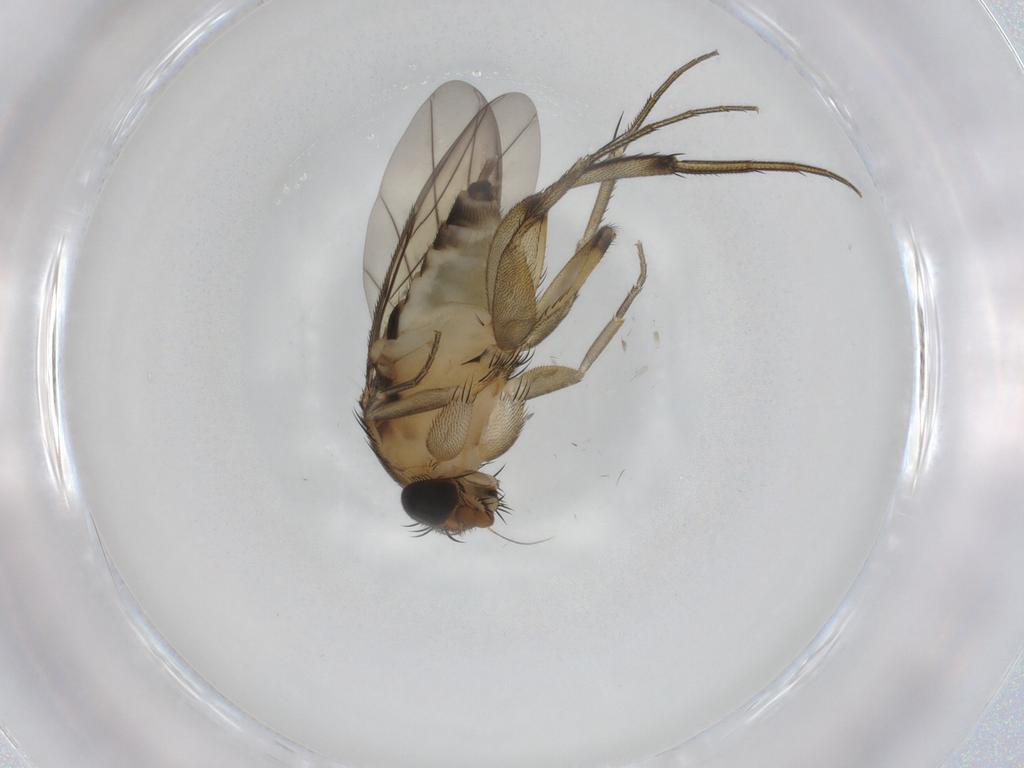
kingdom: Animalia
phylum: Arthropoda
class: Insecta
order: Diptera
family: Phoridae
